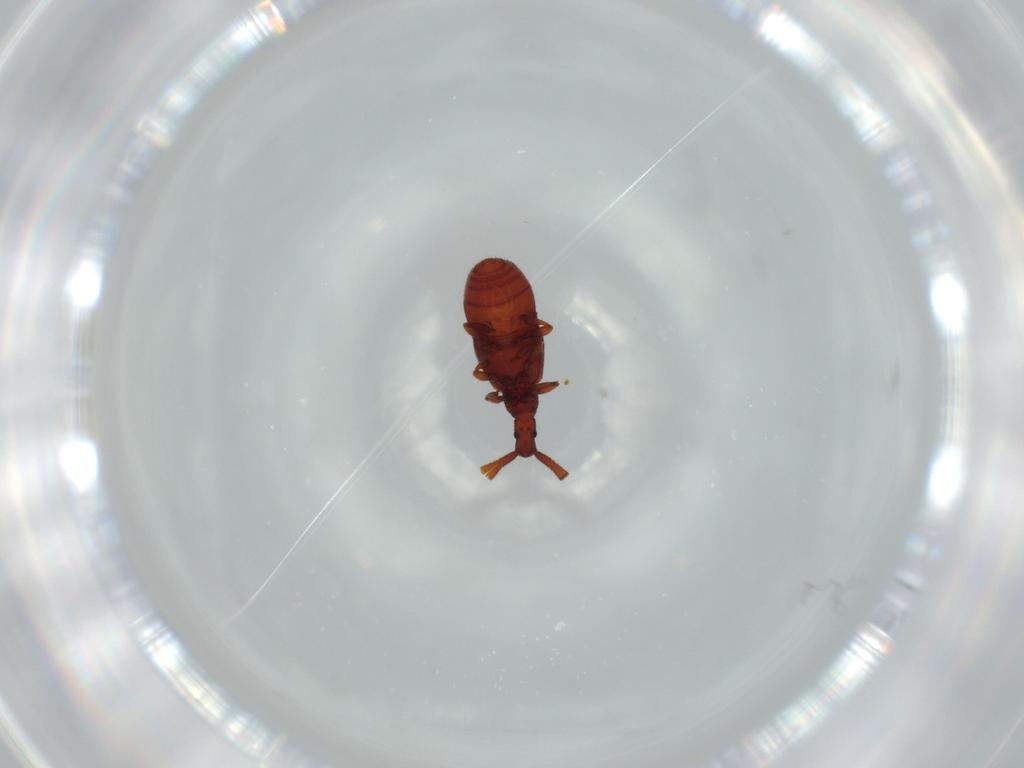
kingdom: Animalia
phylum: Arthropoda
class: Insecta
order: Coleoptera
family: Staphylinidae
